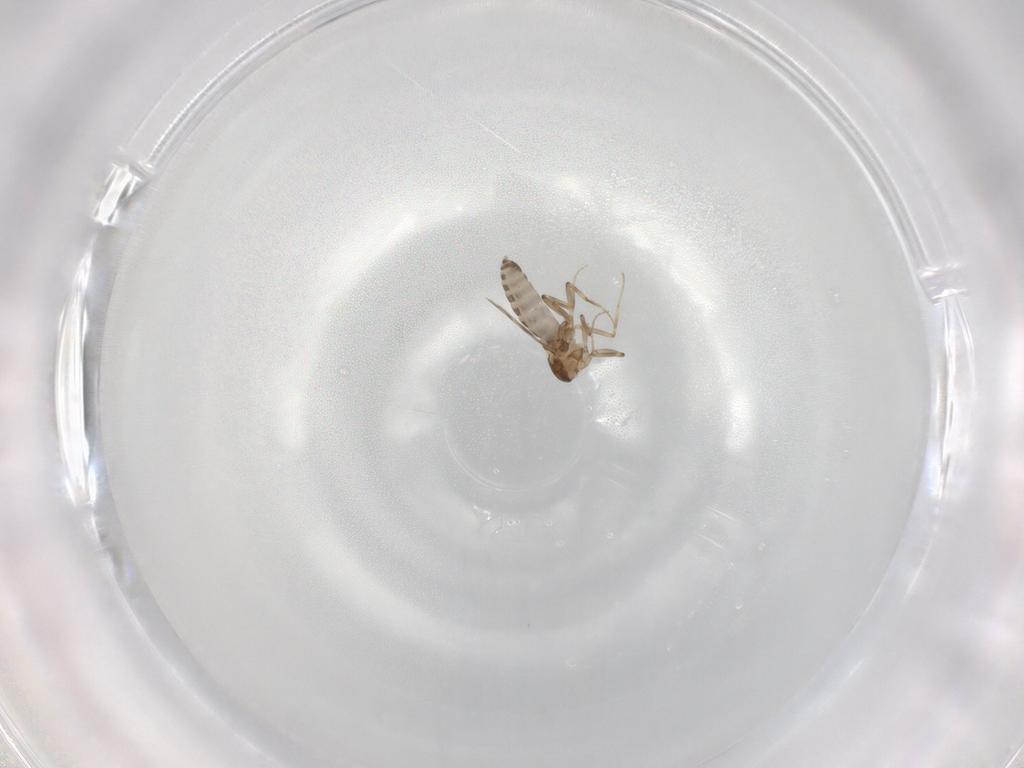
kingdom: Animalia
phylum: Arthropoda
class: Insecta
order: Diptera
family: Ceratopogonidae
